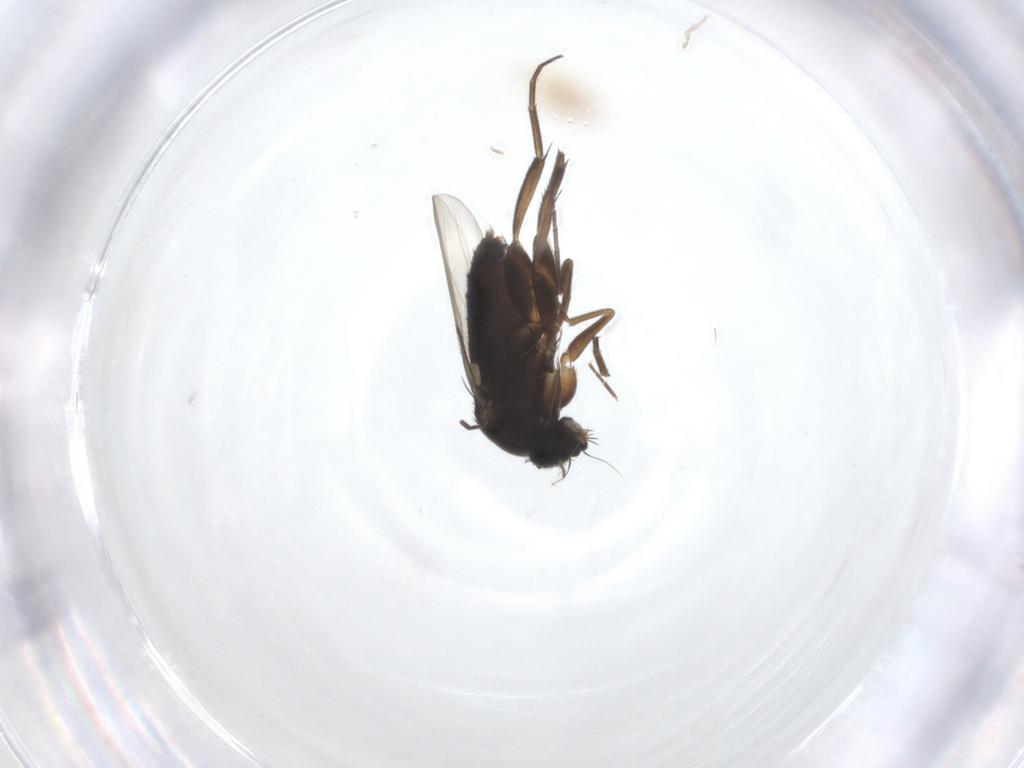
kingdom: Animalia
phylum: Arthropoda
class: Insecta
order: Diptera
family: Phoridae
